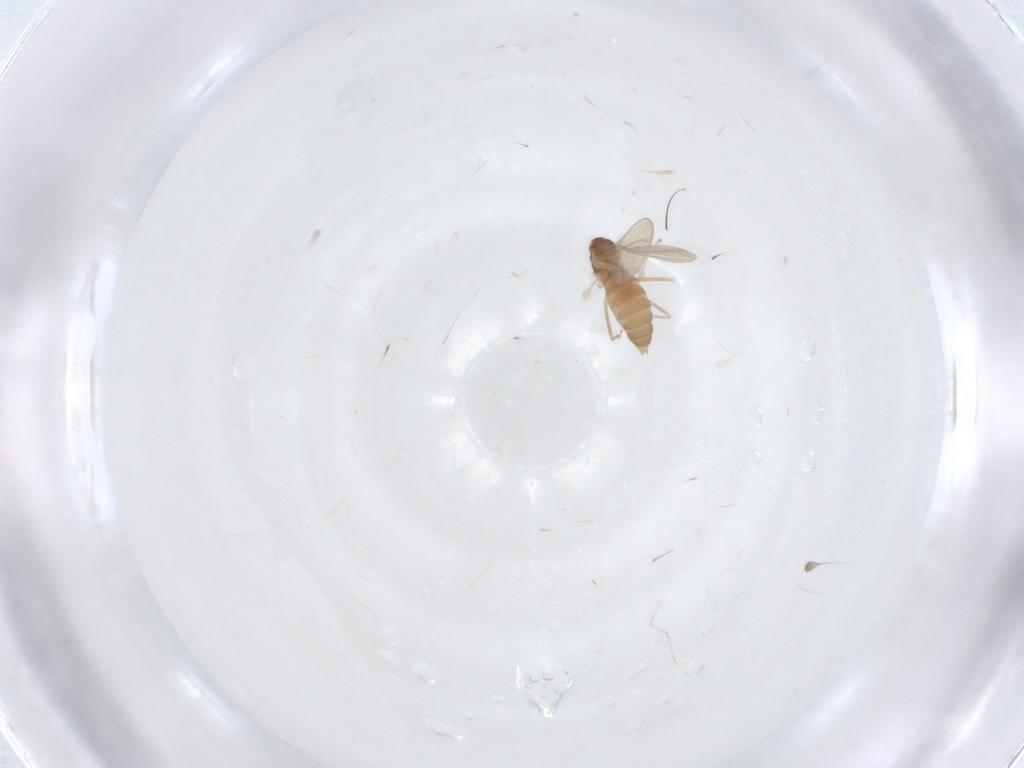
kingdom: Animalia
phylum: Arthropoda
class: Insecta
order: Diptera
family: Cecidomyiidae
